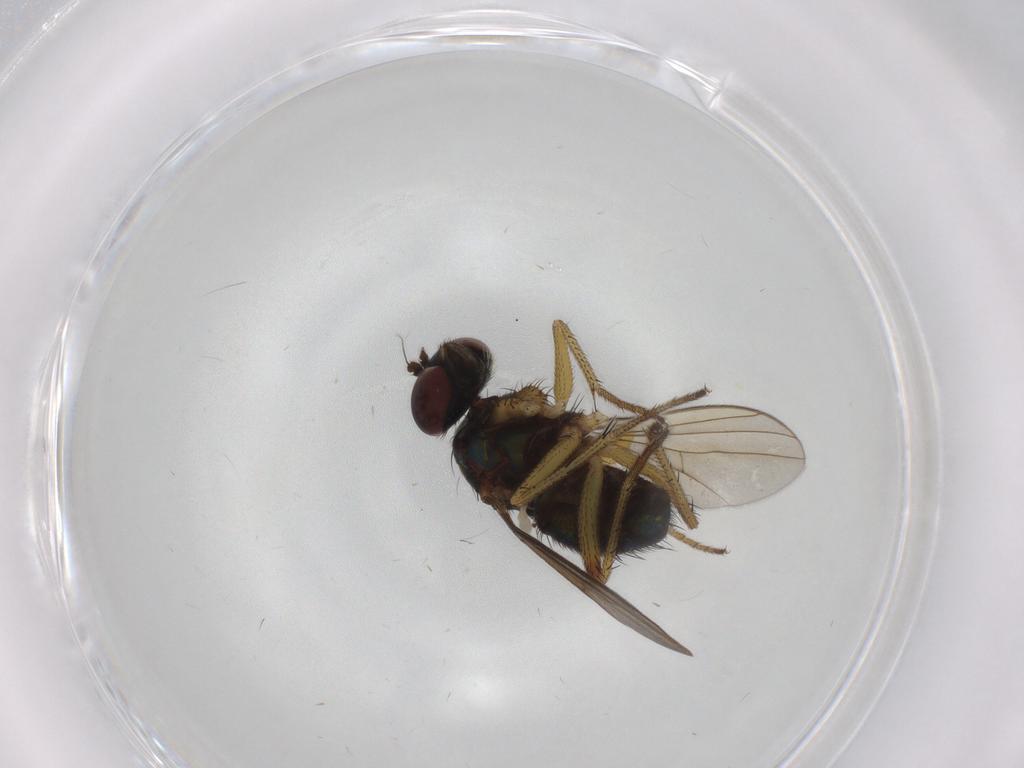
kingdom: Animalia
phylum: Arthropoda
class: Insecta
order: Diptera
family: Dolichopodidae
